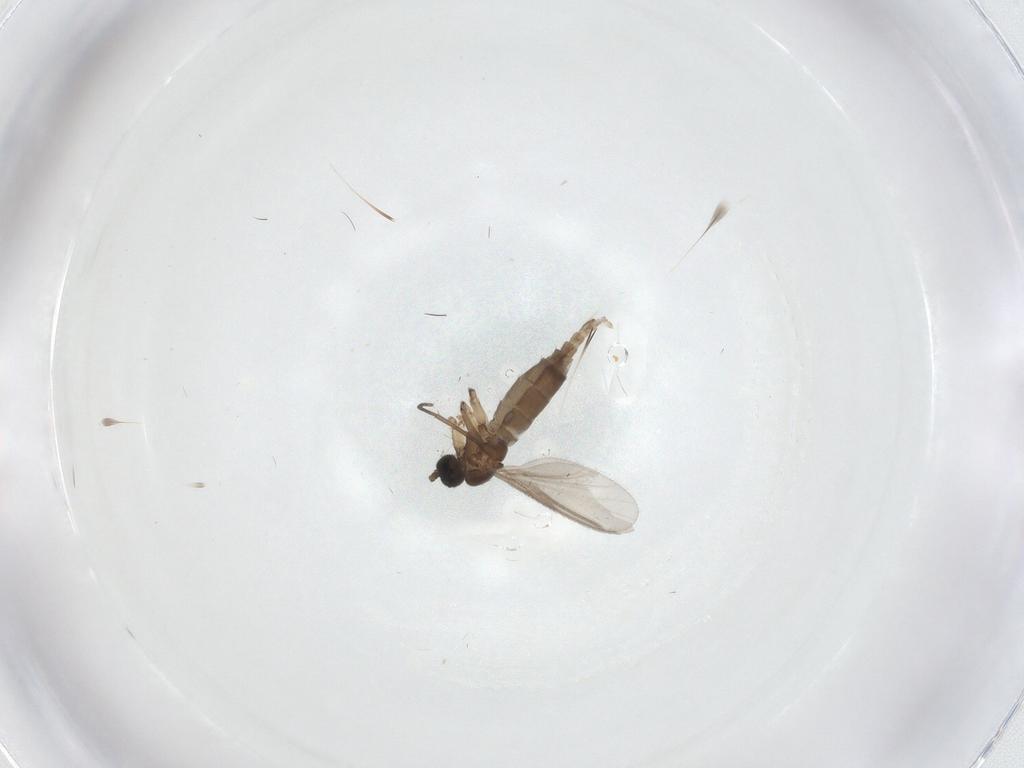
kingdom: Animalia
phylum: Arthropoda
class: Insecta
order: Diptera
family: Sciaridae
